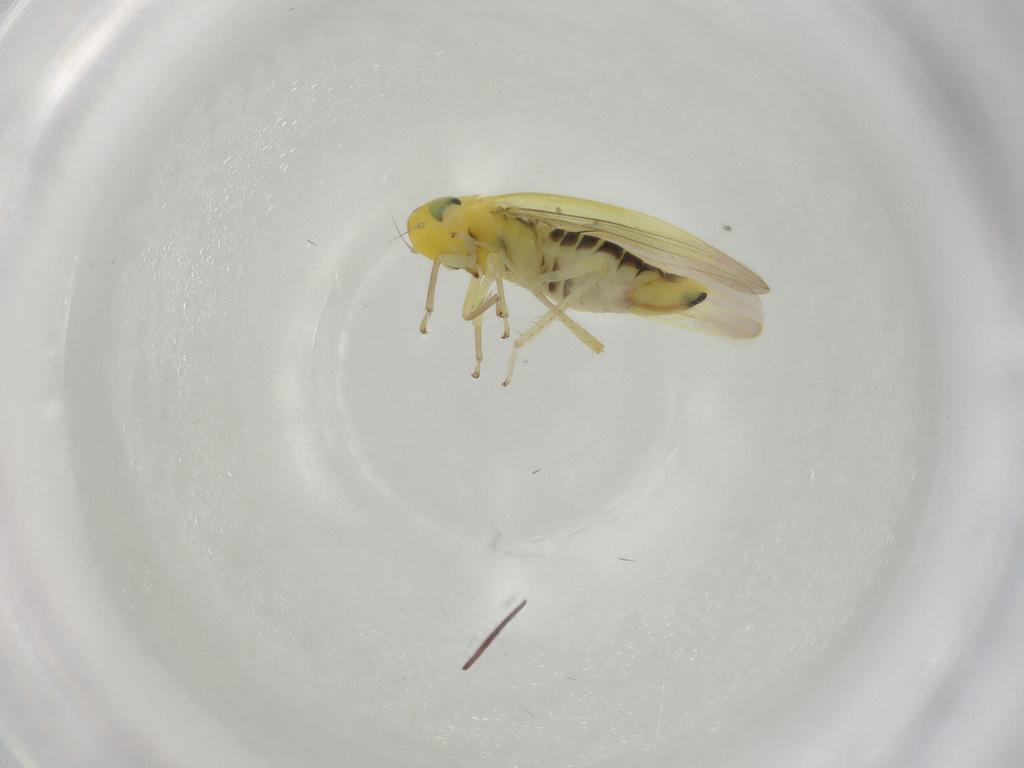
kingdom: Animalia
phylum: Arthropoda
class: Insecta
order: Hemiptera
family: Cicadellidae
